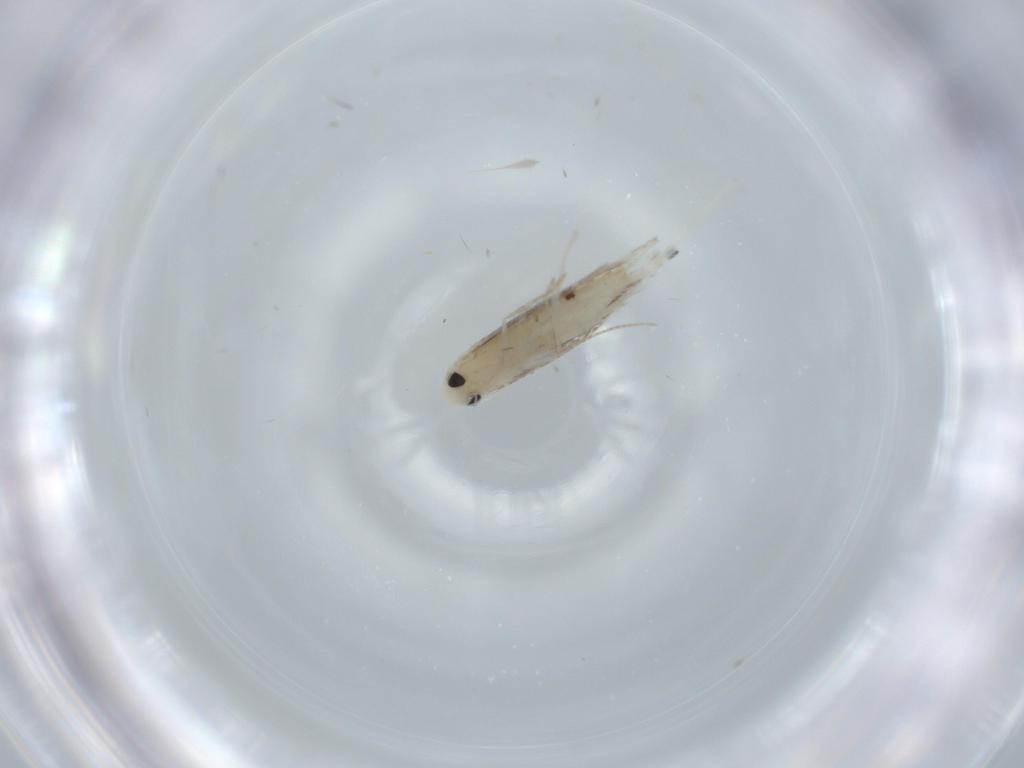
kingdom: Animalia
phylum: Arthropoda
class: Insecta
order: Lepidoptera
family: Gracillariidae
